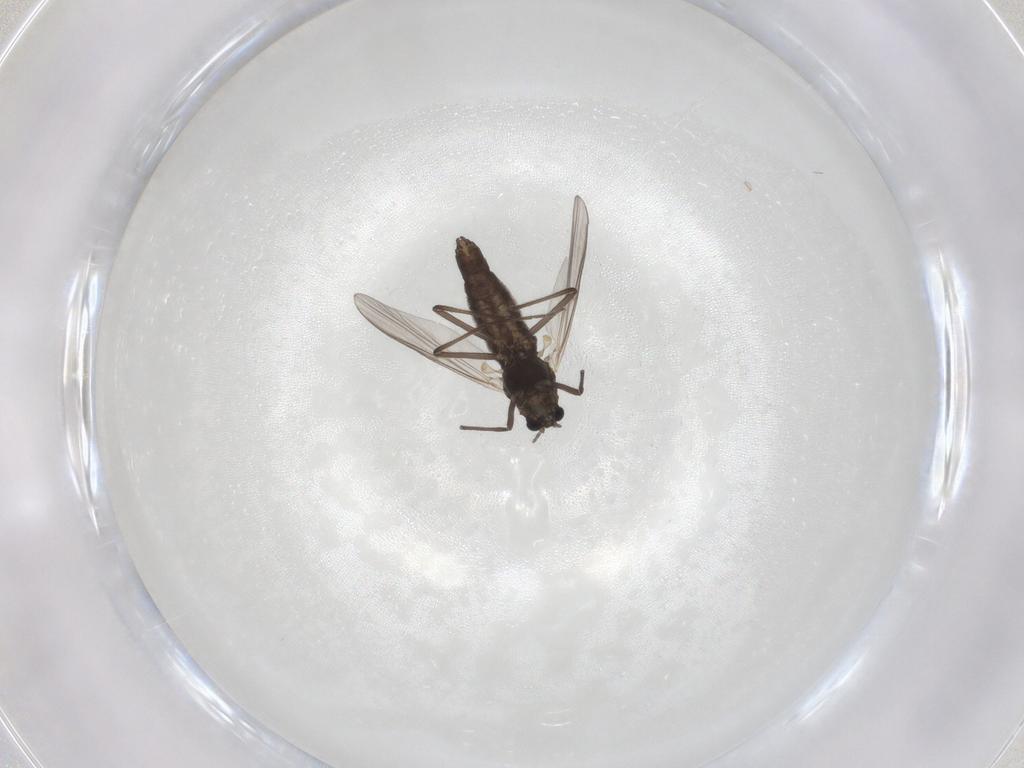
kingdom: Animalia
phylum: Arthropoda
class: Insecta
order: Diptera
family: Chironomidae
